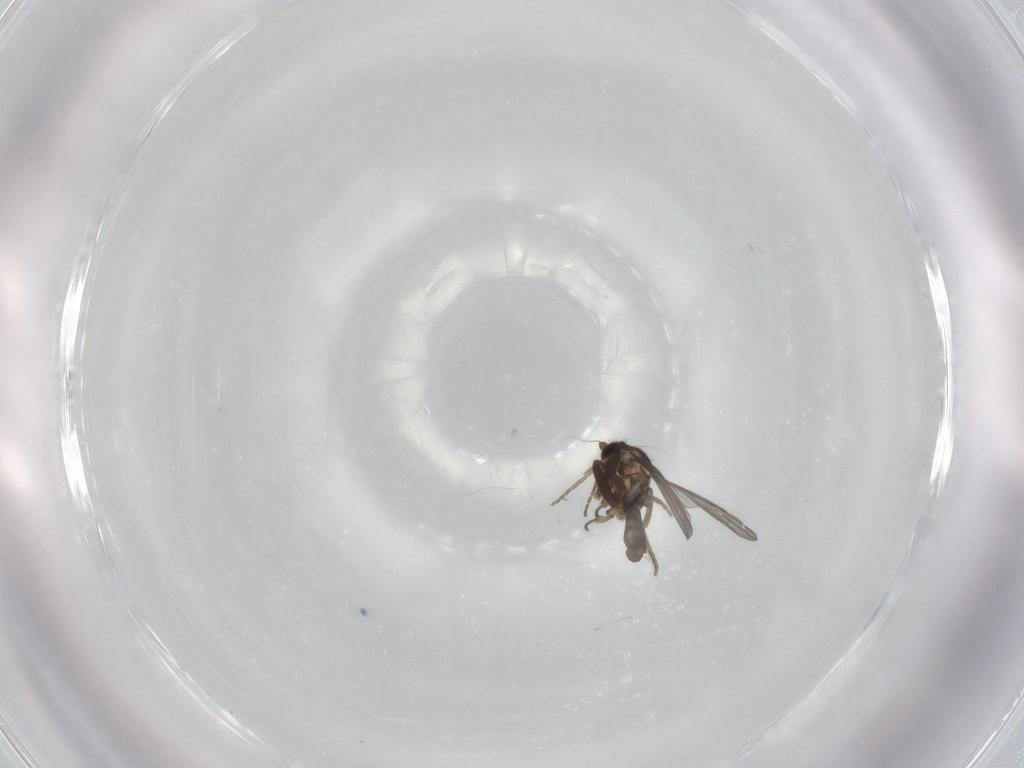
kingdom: Animalia
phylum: Arthropoda
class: Insecta
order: Diptera
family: Phoridae
